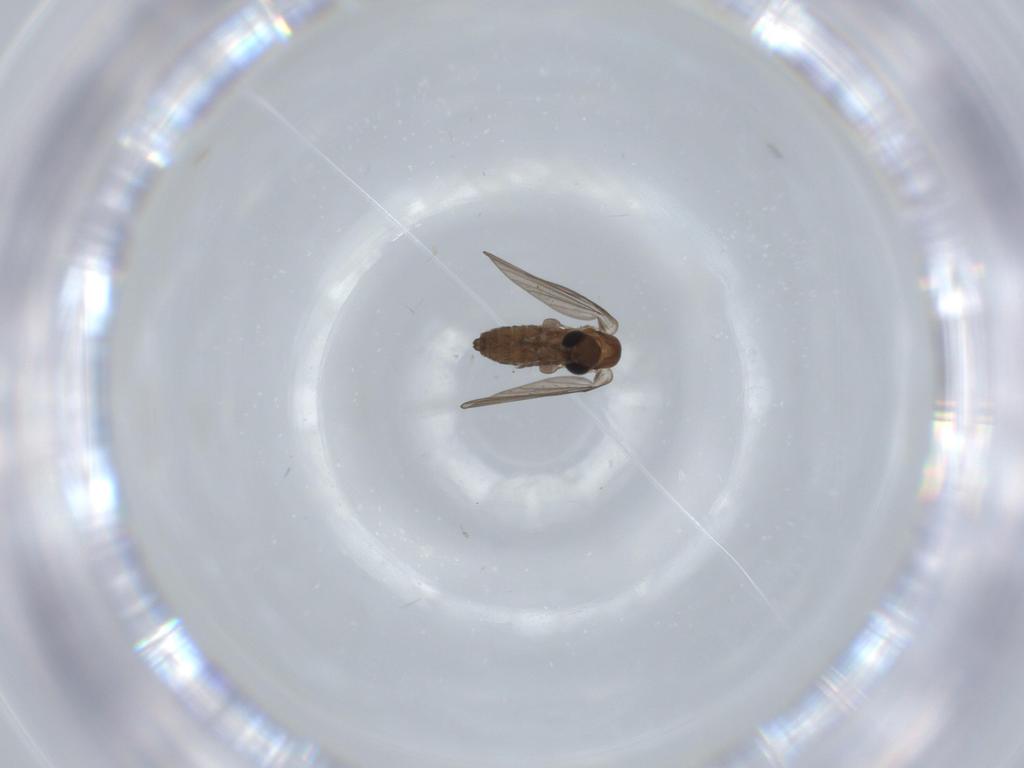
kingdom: Animalia
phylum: Arthropoda
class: Insecta
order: Diptera
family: Psychodidae
